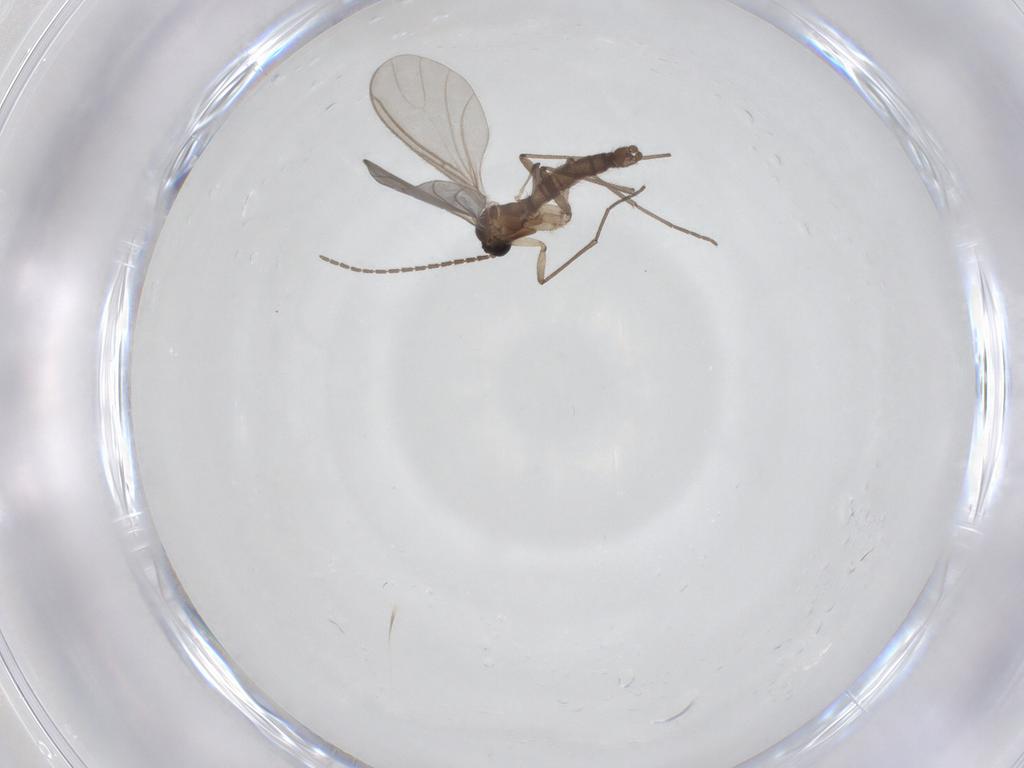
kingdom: Animalia
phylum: Arthropoda
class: Insecta
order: Diptera
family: Sciaridae
